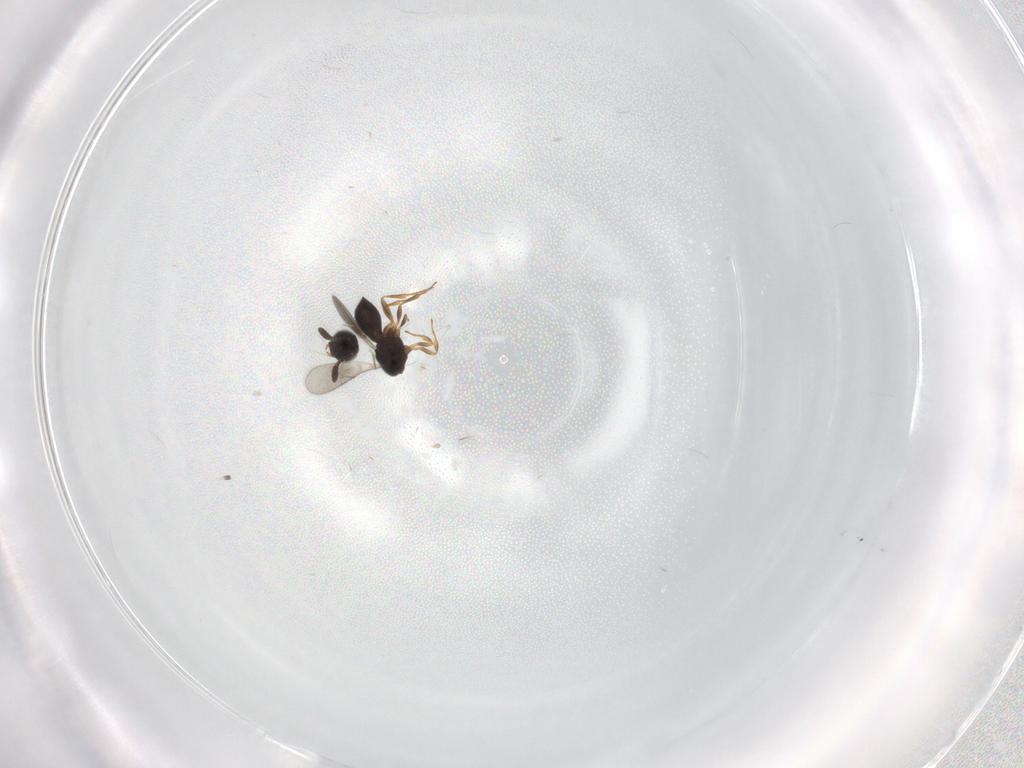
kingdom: Animalia
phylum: Arthropoda
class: Insecta
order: Hymenoptera
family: Scelionidae
